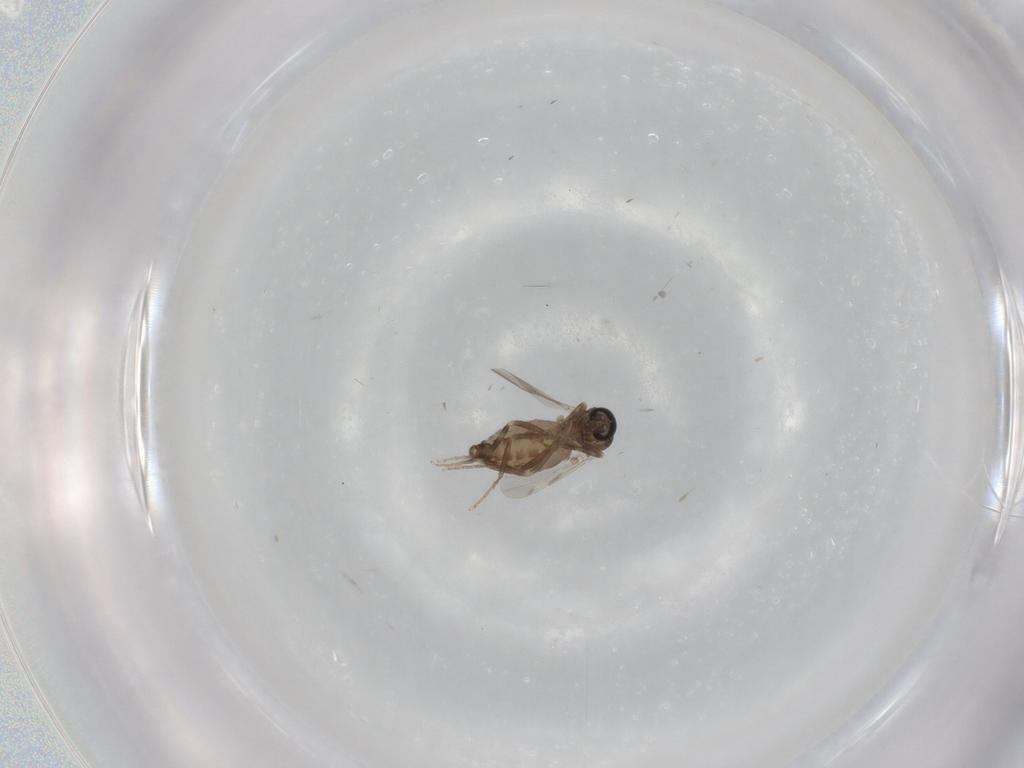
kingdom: Animalia
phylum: Arthropoda
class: Insecta
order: Diptera
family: Ceratopogonidae
